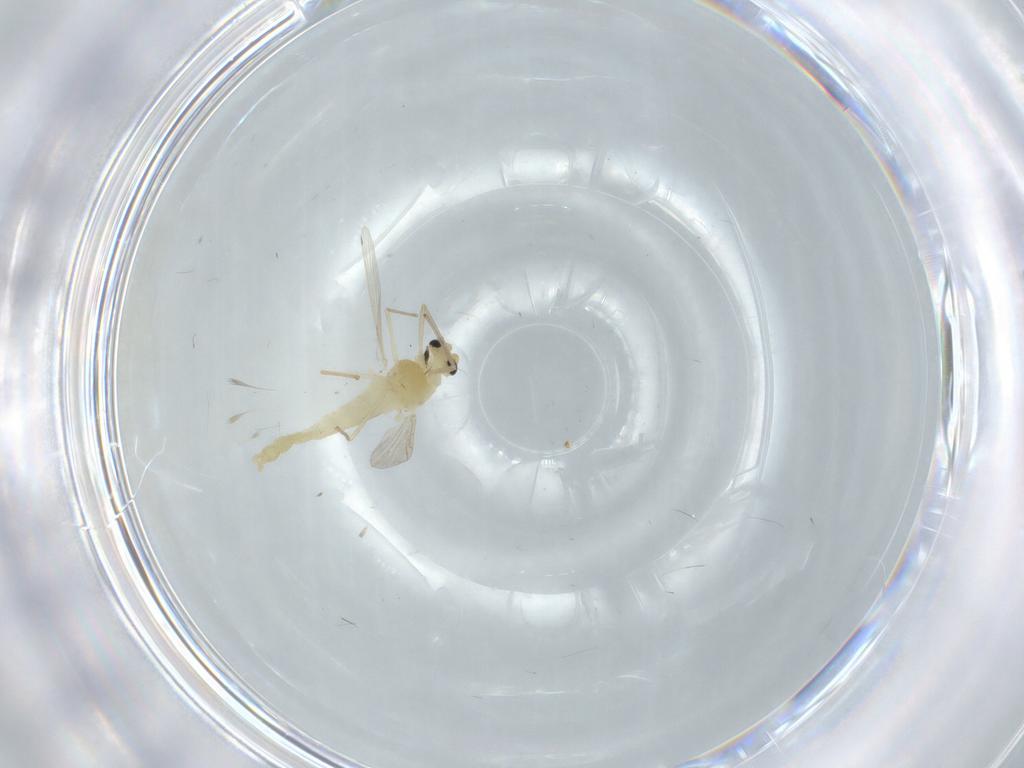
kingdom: Animalia
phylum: Arthropoda
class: Insecta
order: Diptera
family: Chironomidae
